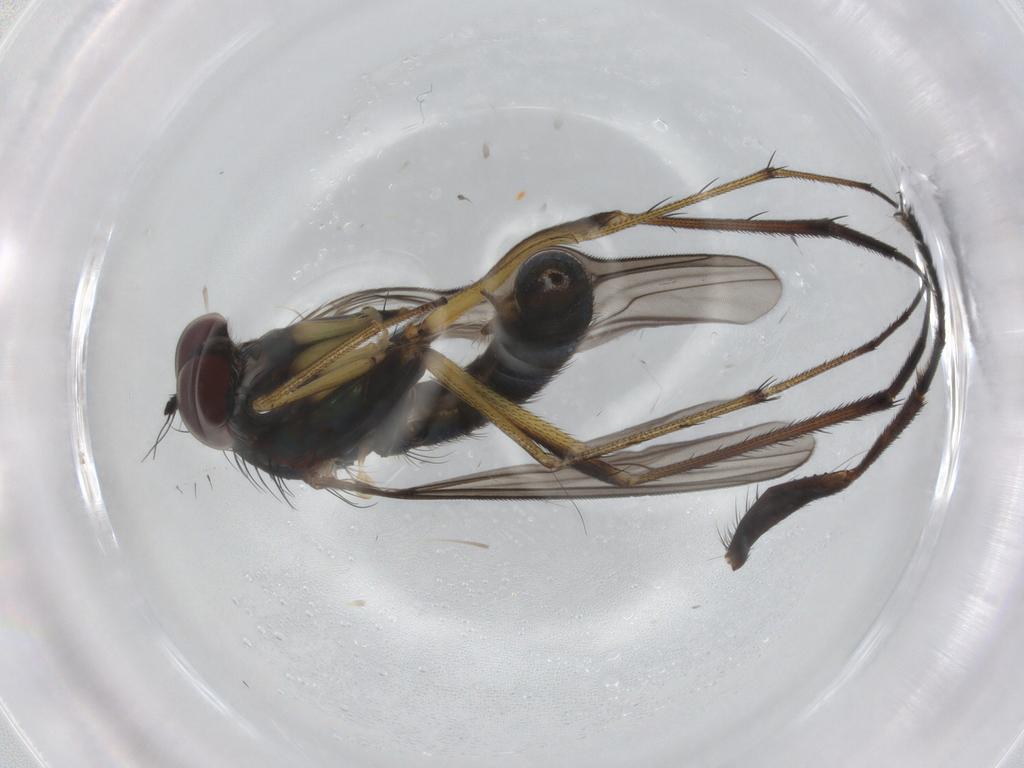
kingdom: Animalia
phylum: Arthropoda
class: Insecta
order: Diptera
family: Muscidae
